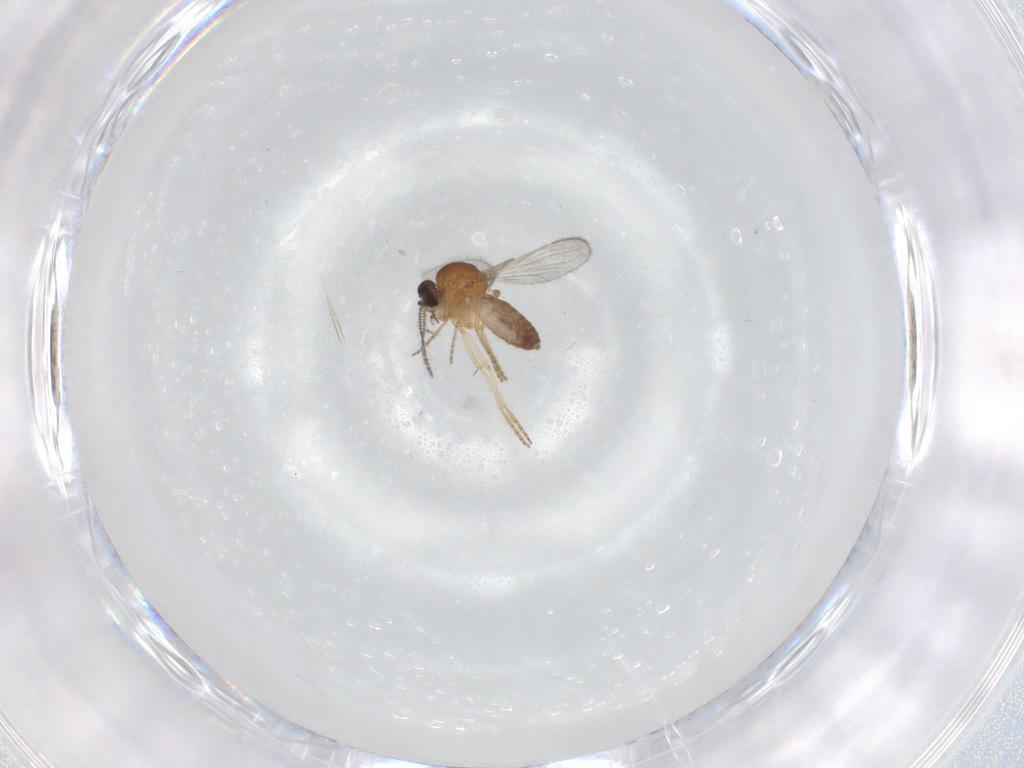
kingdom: Animalia
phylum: Arthropoda
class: Insecta
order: Diptera
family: Ceratopogonidae
